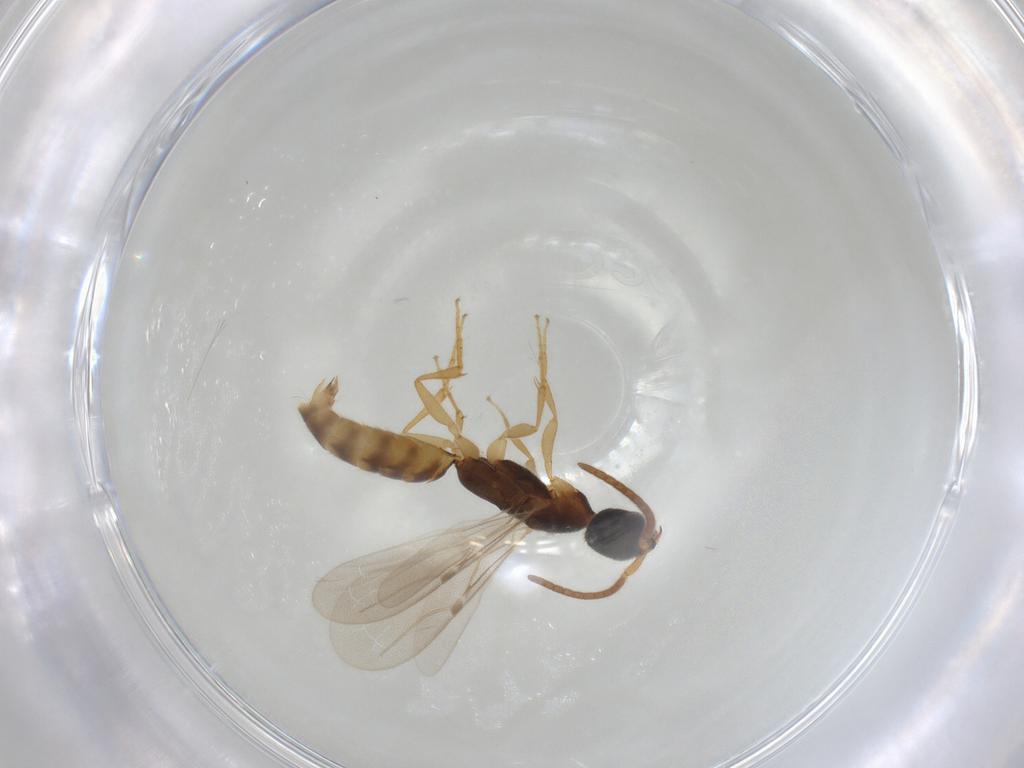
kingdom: Animalia
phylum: Arthropoda
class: Insecta
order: Hymenoptera
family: Bethylidae
